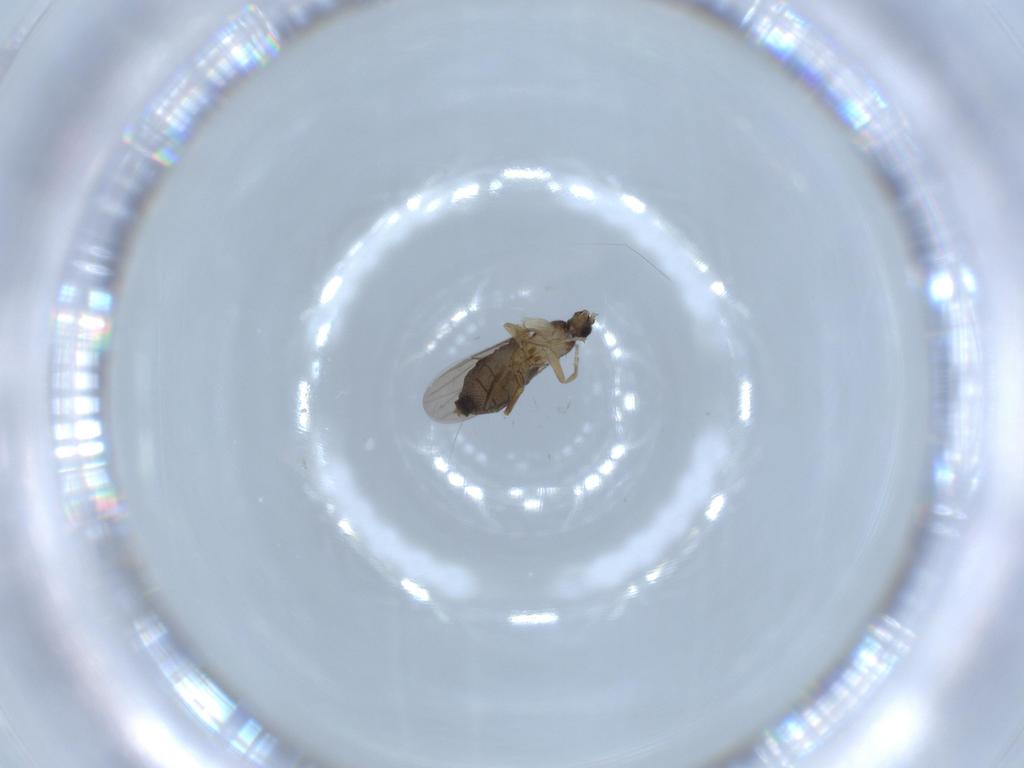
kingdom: Animalia
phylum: Arthropoda
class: Insecta
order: Diptera
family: Phoridae
